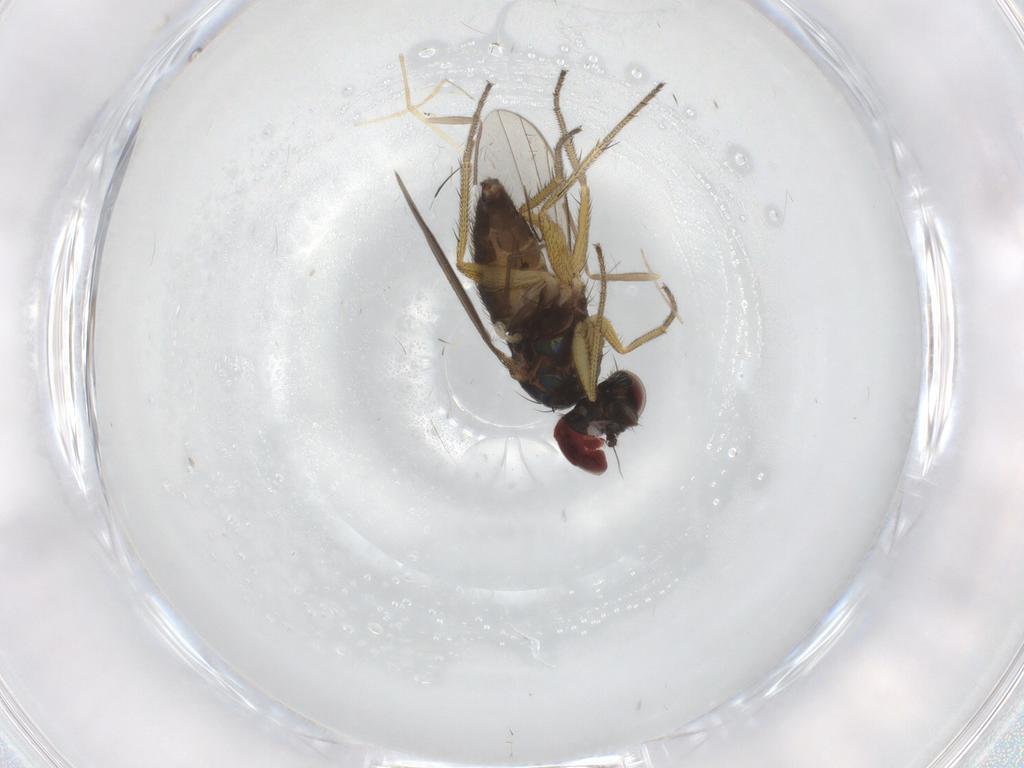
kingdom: Animalia
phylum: Arthropoda
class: Insecta
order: Diptera
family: Chironomidae
